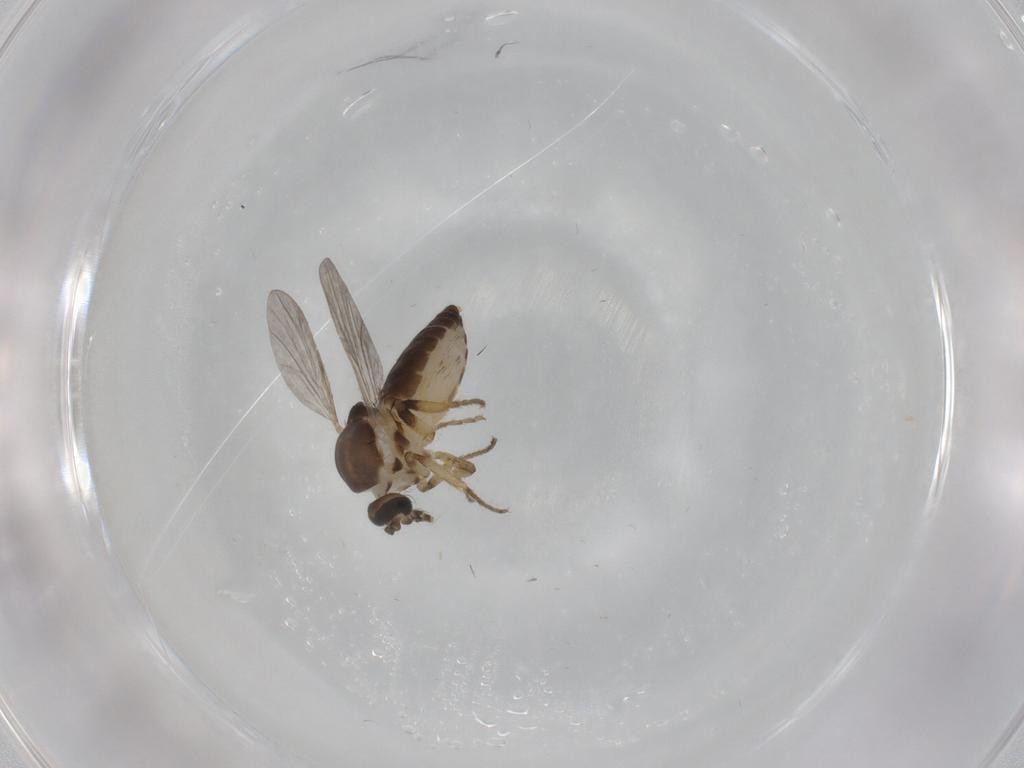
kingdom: Animalia
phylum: Arthropoda
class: Insecta
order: Diptera
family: Ceratopogonidae
